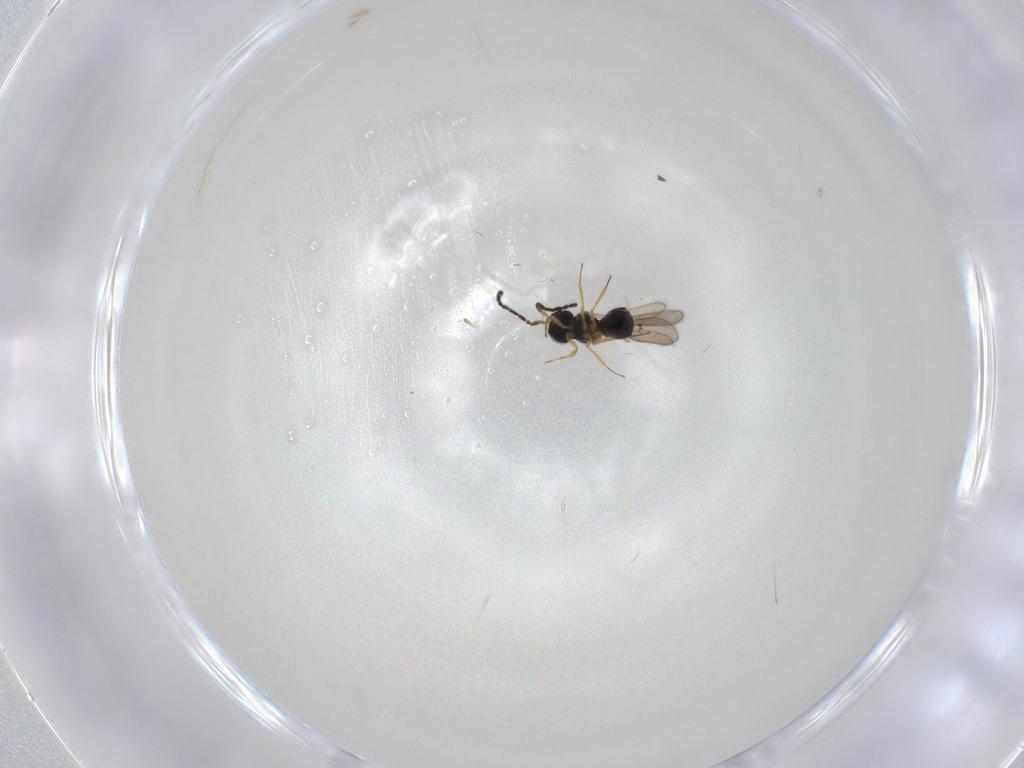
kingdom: Animalia
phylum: Arthropoda
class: Insecta
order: Hymenoptera
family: Scelionidae
